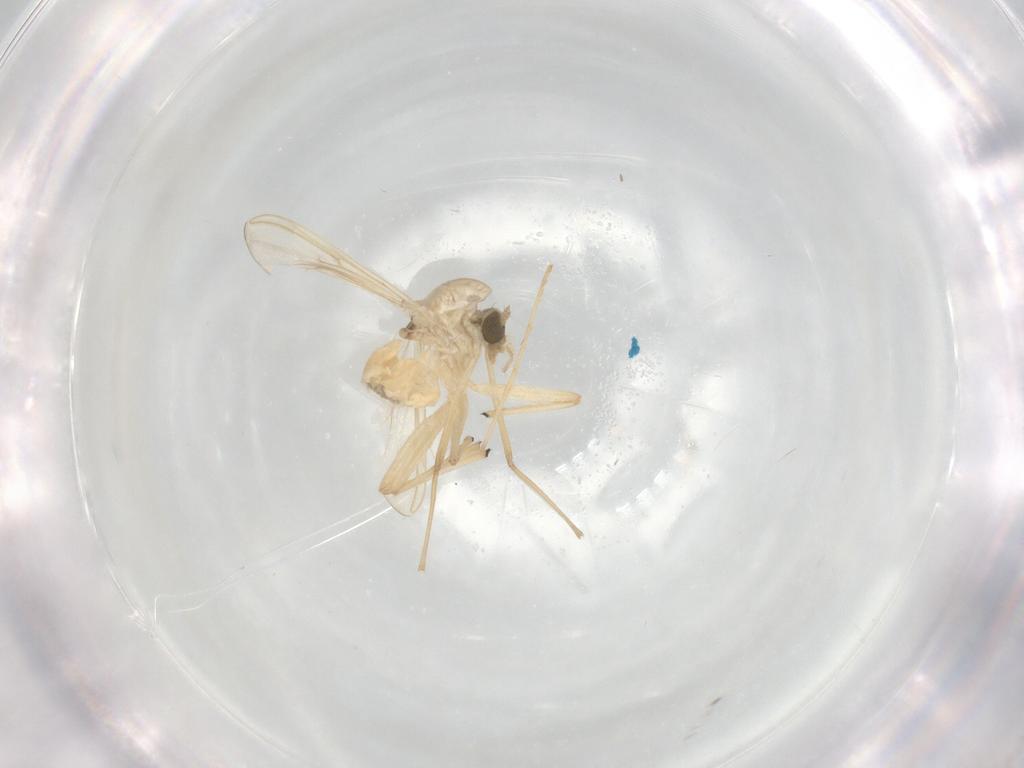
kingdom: Animalia
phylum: Arthropoda
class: Insecta
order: Diptera
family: Chironomidae
